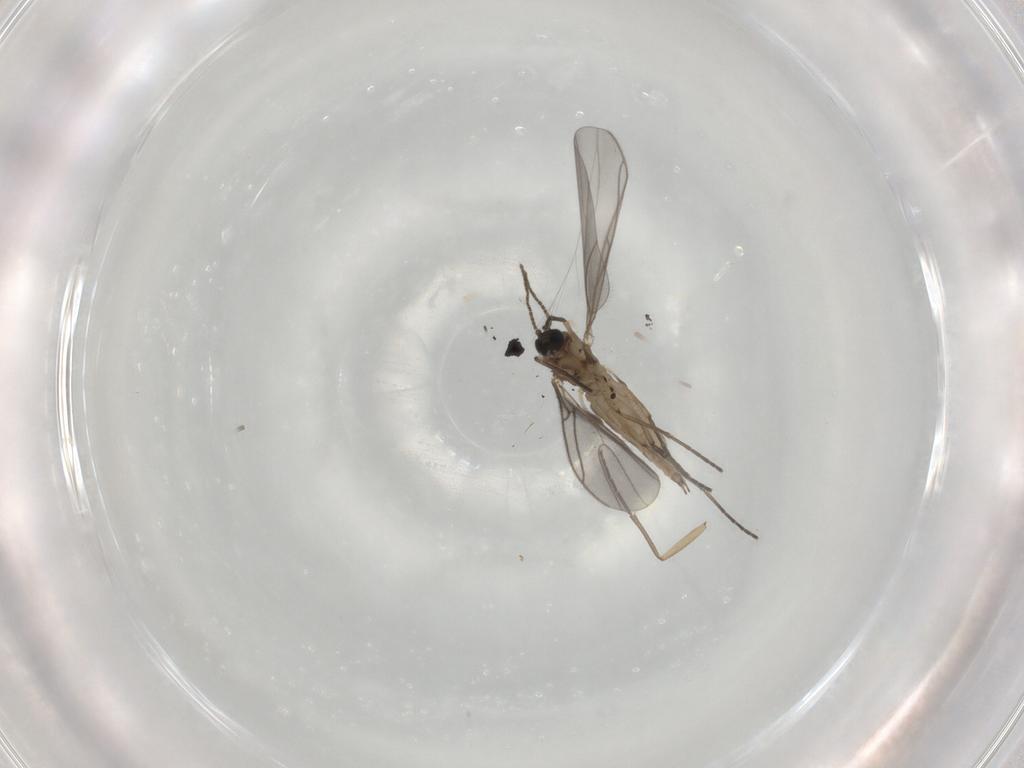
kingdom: Animalia
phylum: Arthropoda
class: Insecta
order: Diptera
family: Sciaridae
